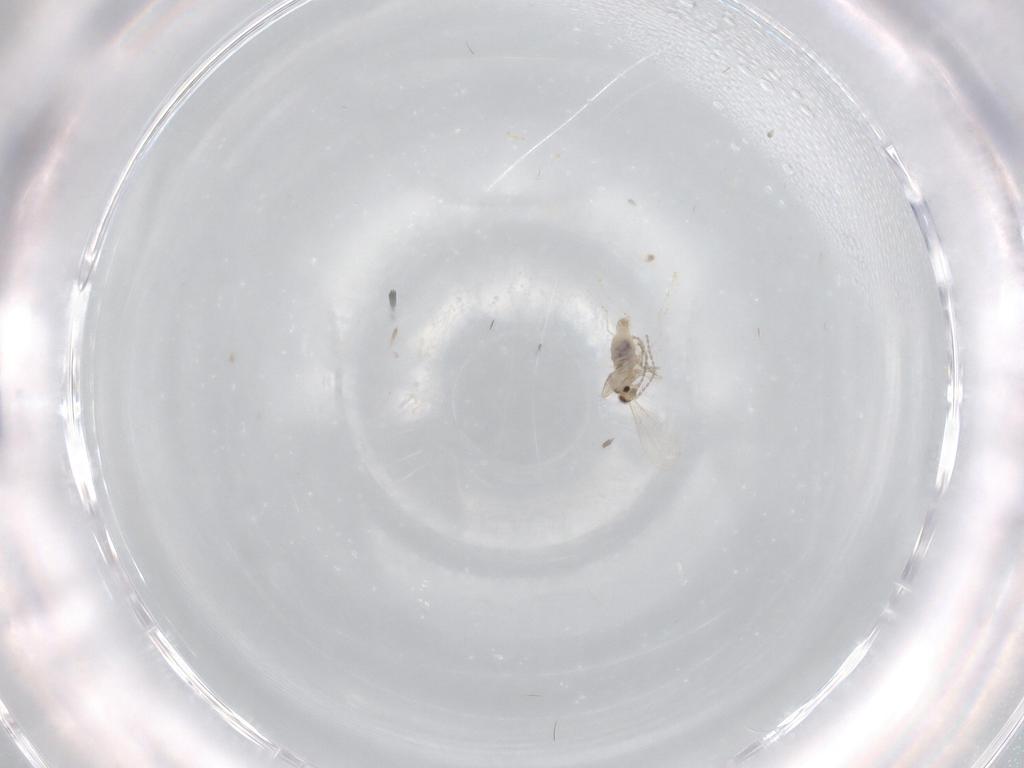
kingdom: Animalia
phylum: Arthropoda
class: Insecta
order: Diptera
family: Cecidomyiidae
